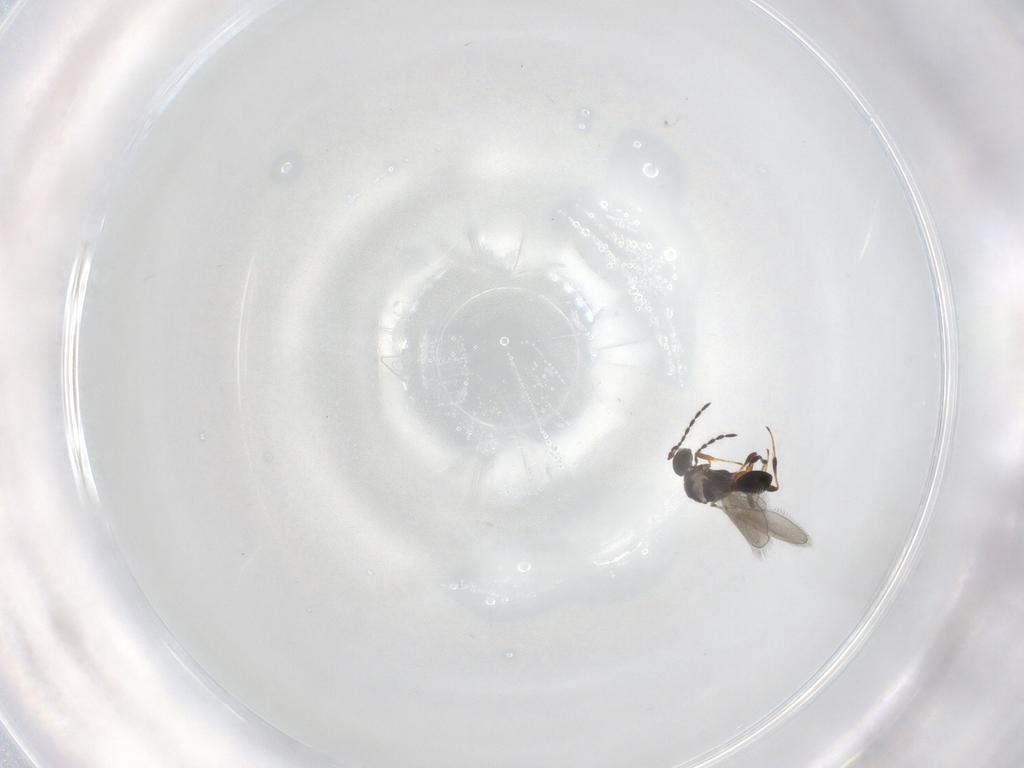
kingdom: Animalia
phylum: Arthropoda
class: Insecta
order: Hymenoptera
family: Platygastridae
